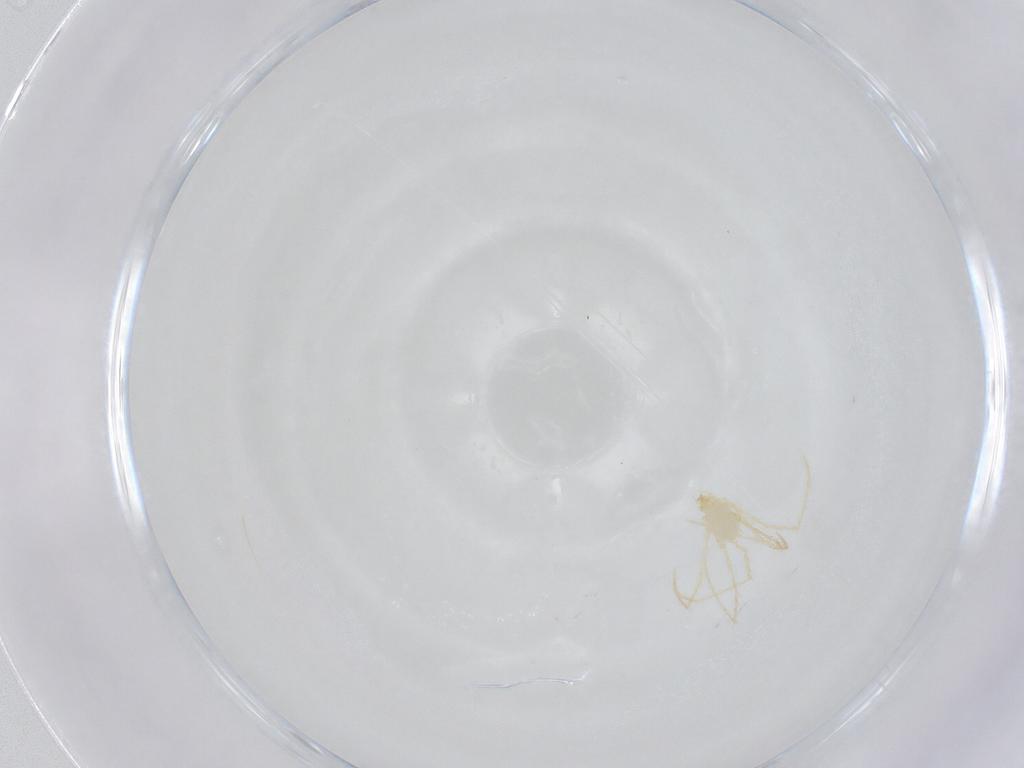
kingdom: Animalia
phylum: Arthropoda
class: Arachnida
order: Trombidiformes
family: Erythraeidae
